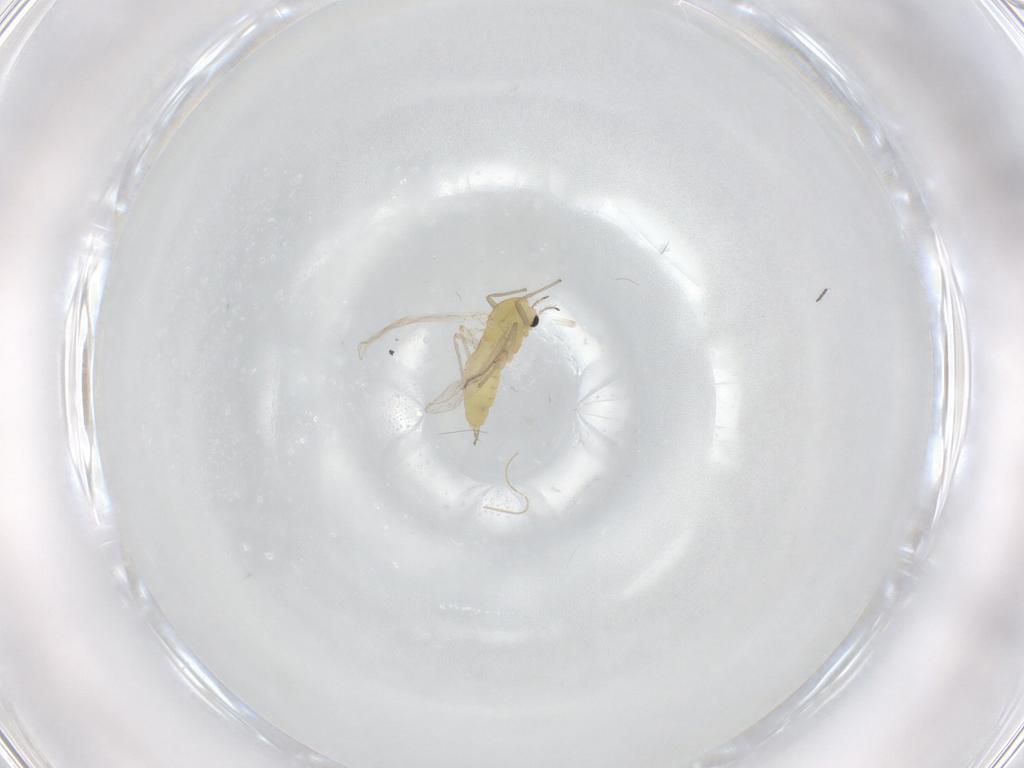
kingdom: Animalia
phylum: Arthropoda
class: Insecta
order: Diptera
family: Chironomidae
